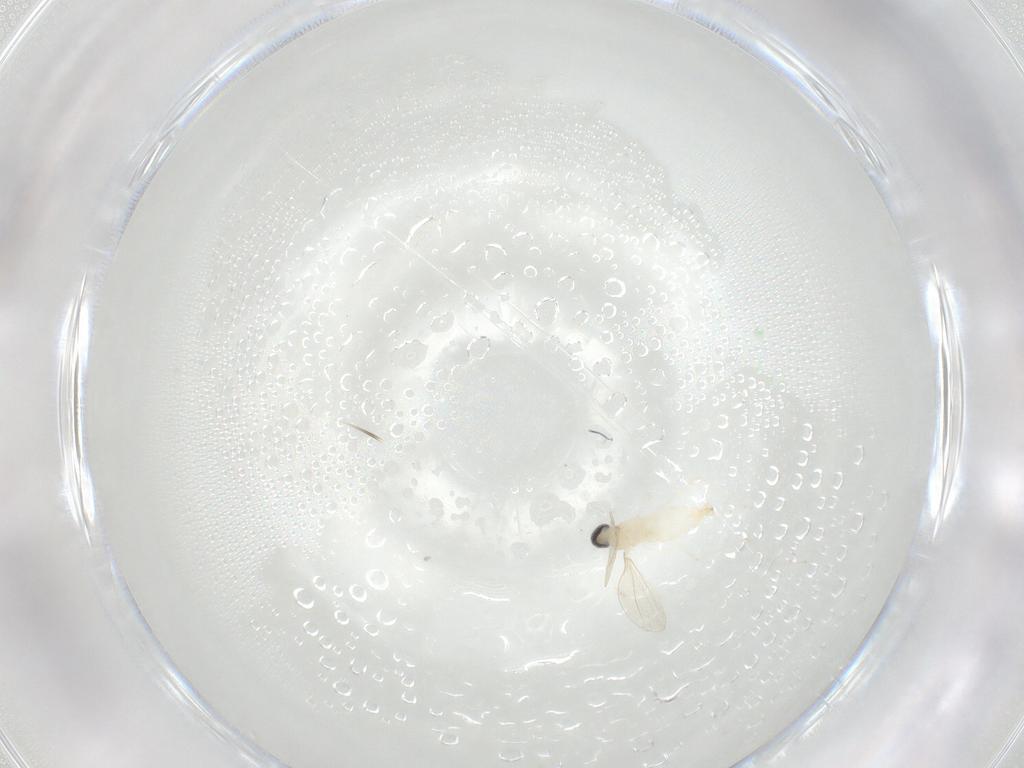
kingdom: Animalia
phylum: Arthropoda
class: Insecta
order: Diptera
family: Cecidomyiidae
